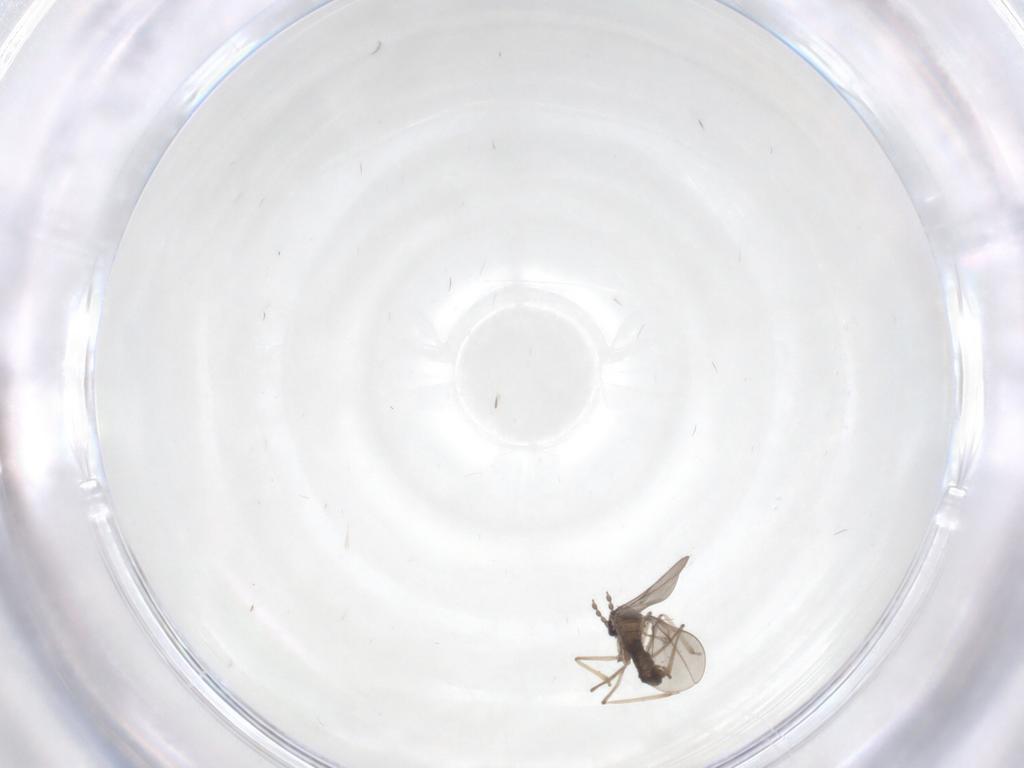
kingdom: Animalia
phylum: Arthropoda
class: Insecta
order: Diptera
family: Cecidomyiidae
